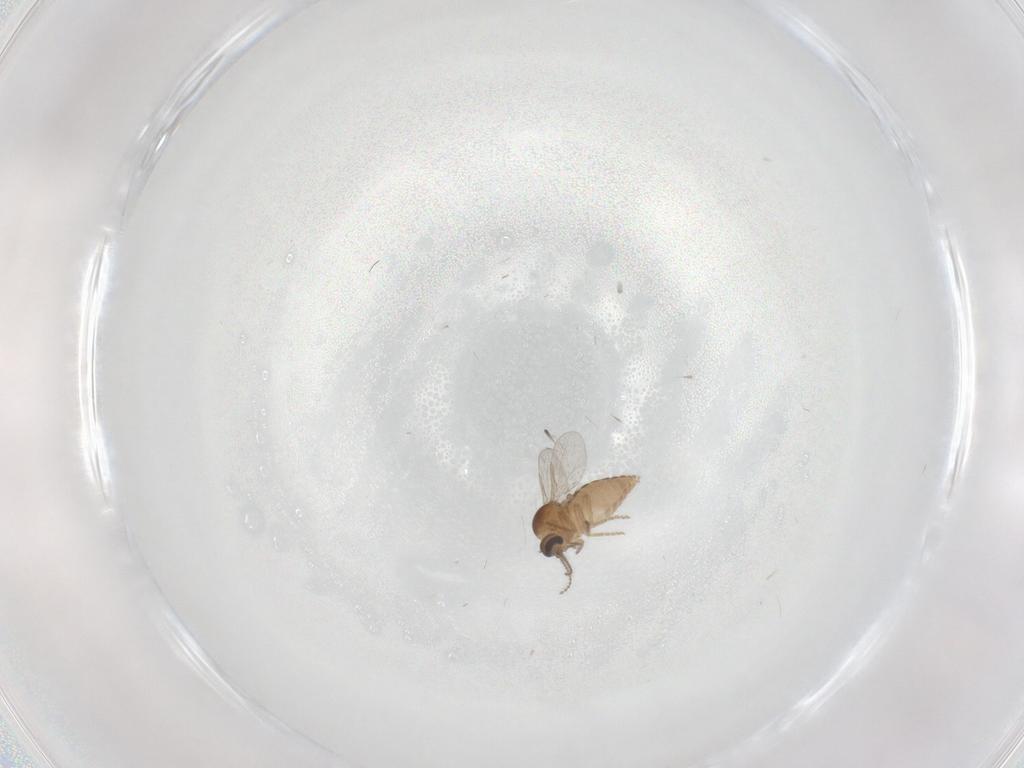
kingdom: Animalia
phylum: Arthropoda
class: Insecta
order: Diptera
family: Ceratopogonidae
